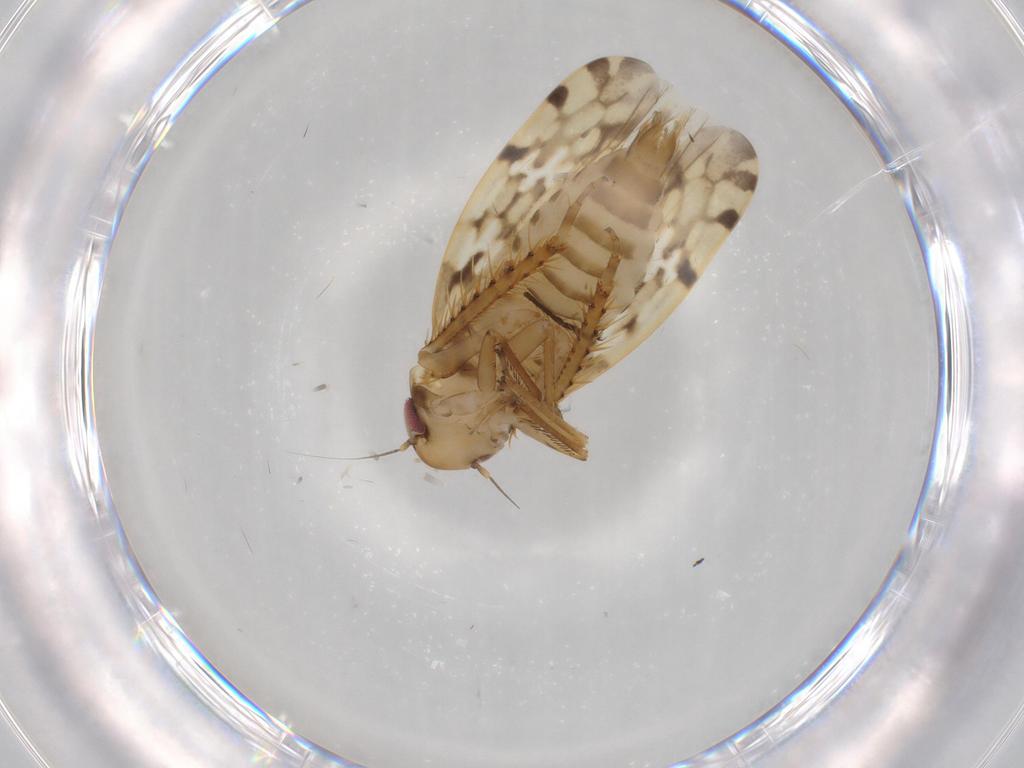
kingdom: Animalia
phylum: Arthropoda
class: Insecta
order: Hemiptera
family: Cicadellidae
